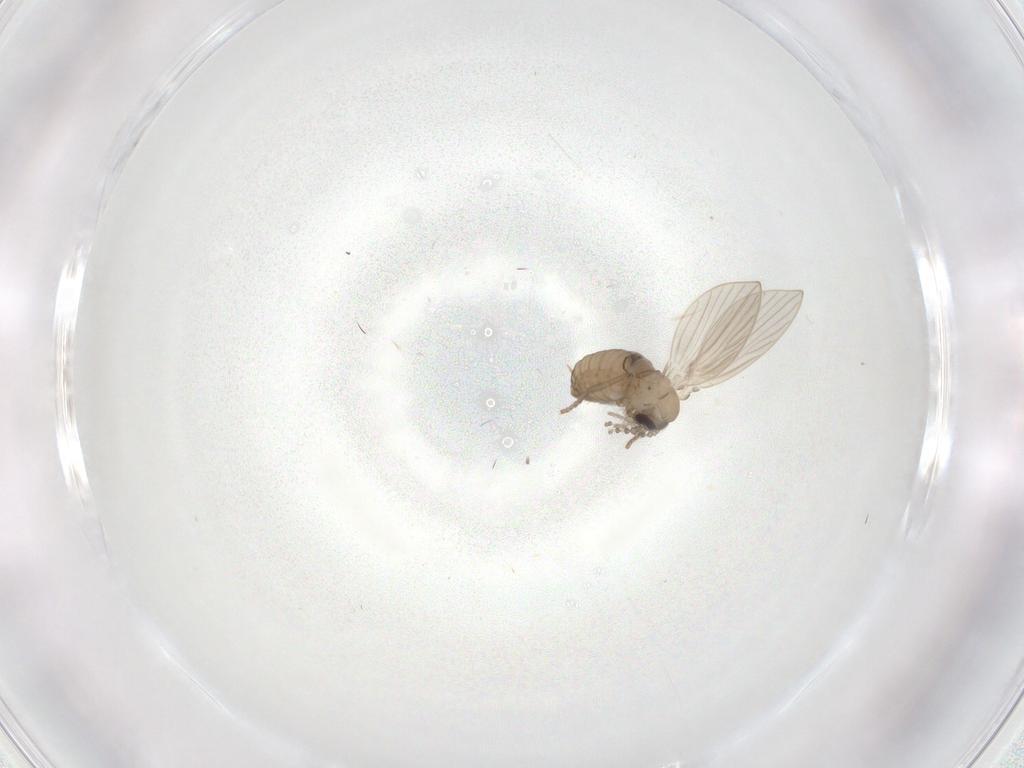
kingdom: Animalia
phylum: Arthropoda
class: Insecta
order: Diptera
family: Psychodidae
